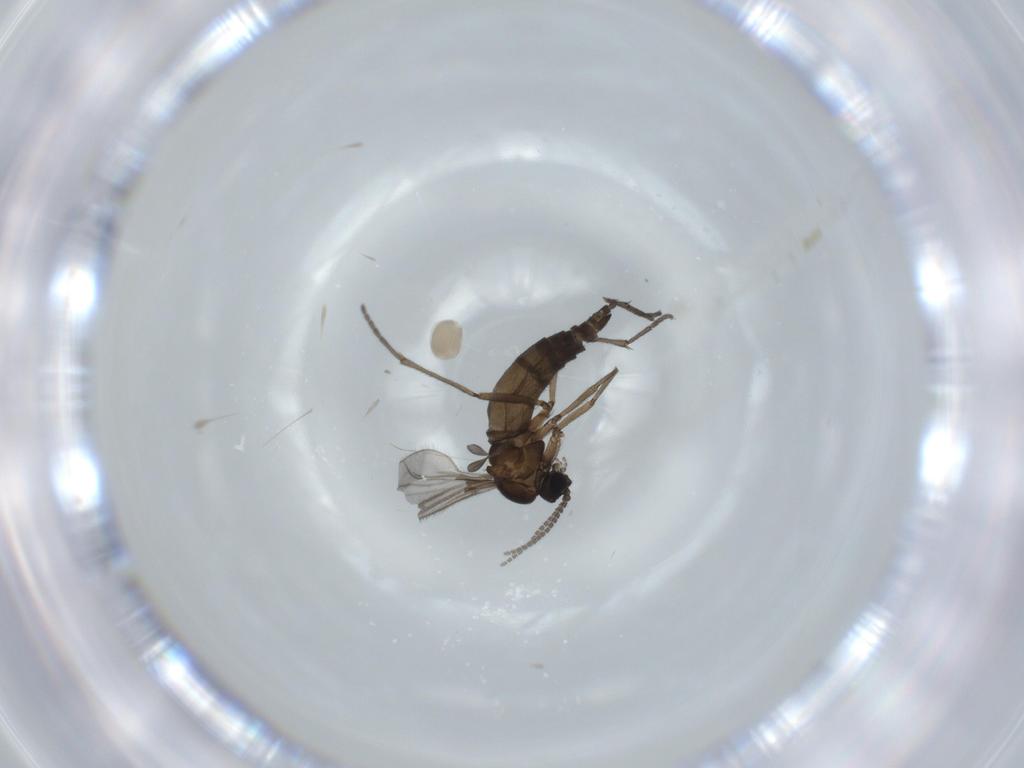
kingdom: Animalia
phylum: Arthropoda
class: Insecta
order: Diptera
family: Sciaridae
